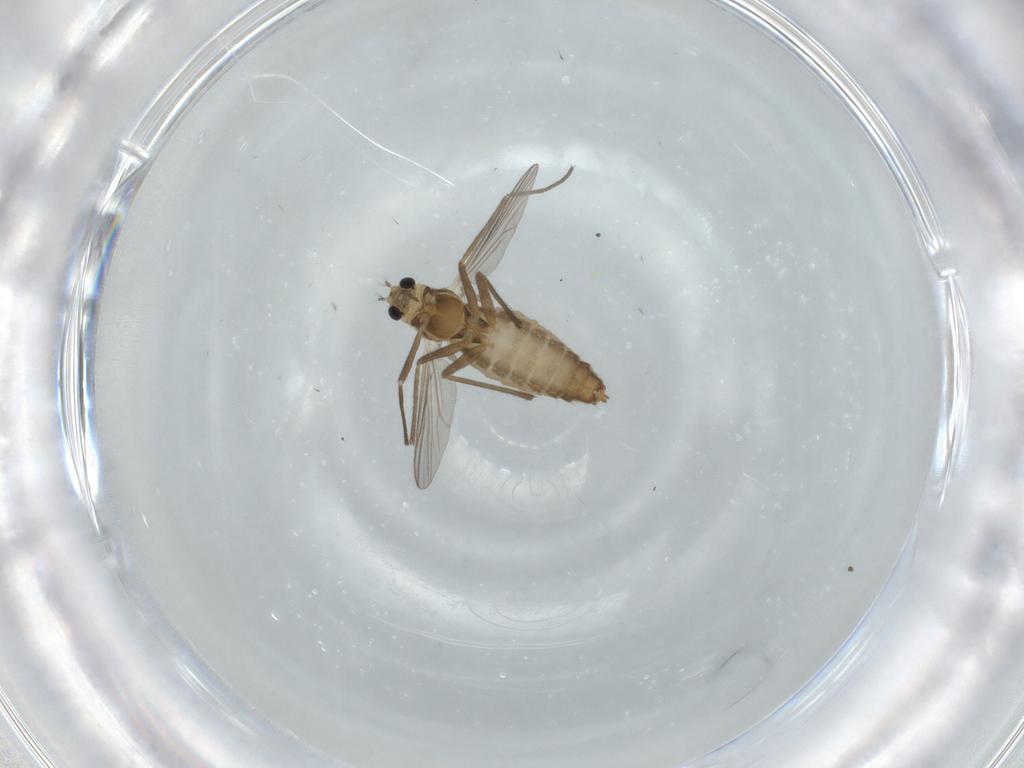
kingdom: Animalia
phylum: Arthropoda
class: Insecta
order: Diptera
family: Chironomidae
